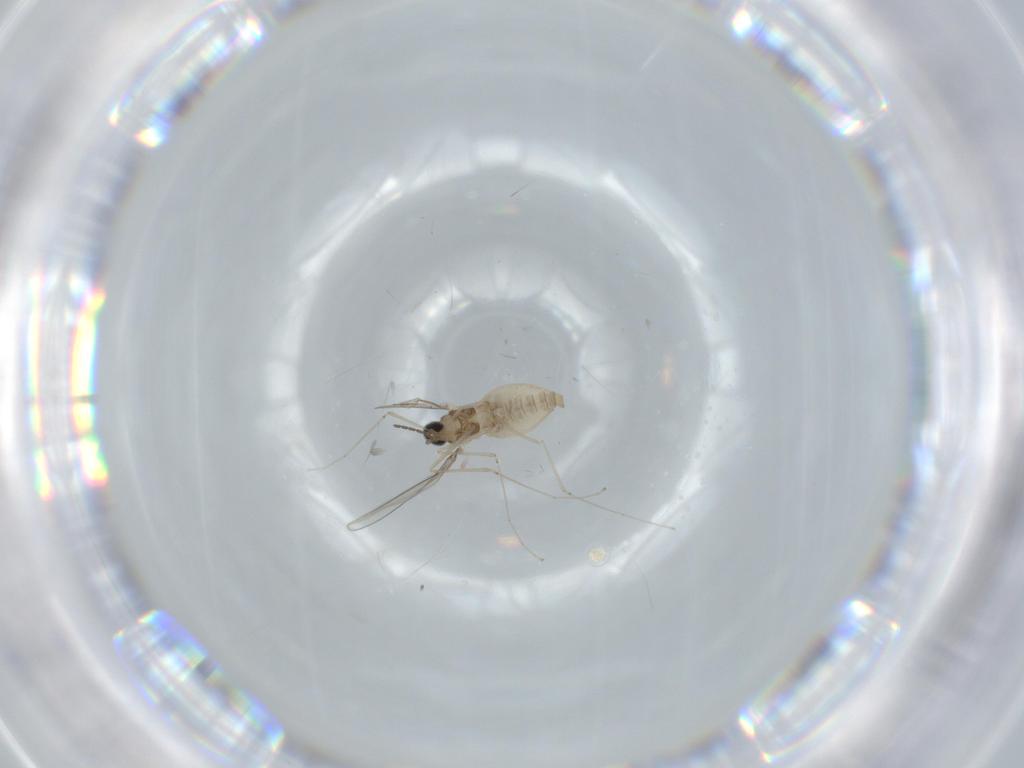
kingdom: Animalia
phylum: Arthropoda
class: Insecta
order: Diptera
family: Cecidomyiidae
